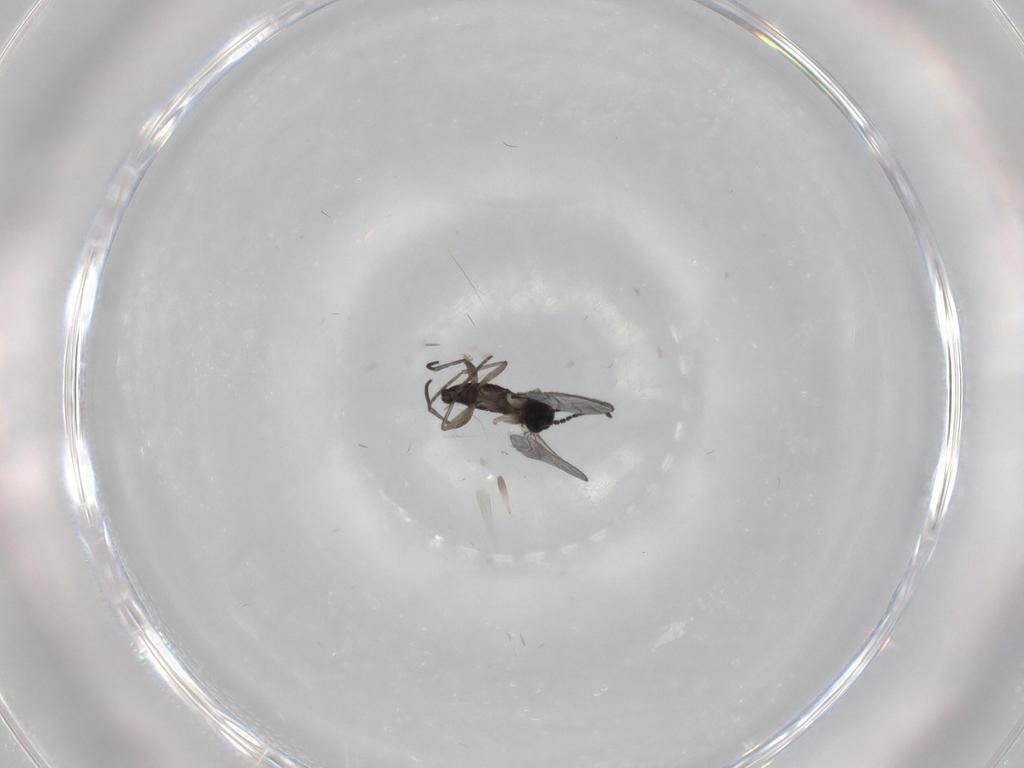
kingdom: Animalia
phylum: Arthropoda
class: Insecta
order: Diptera
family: Sciaridae
